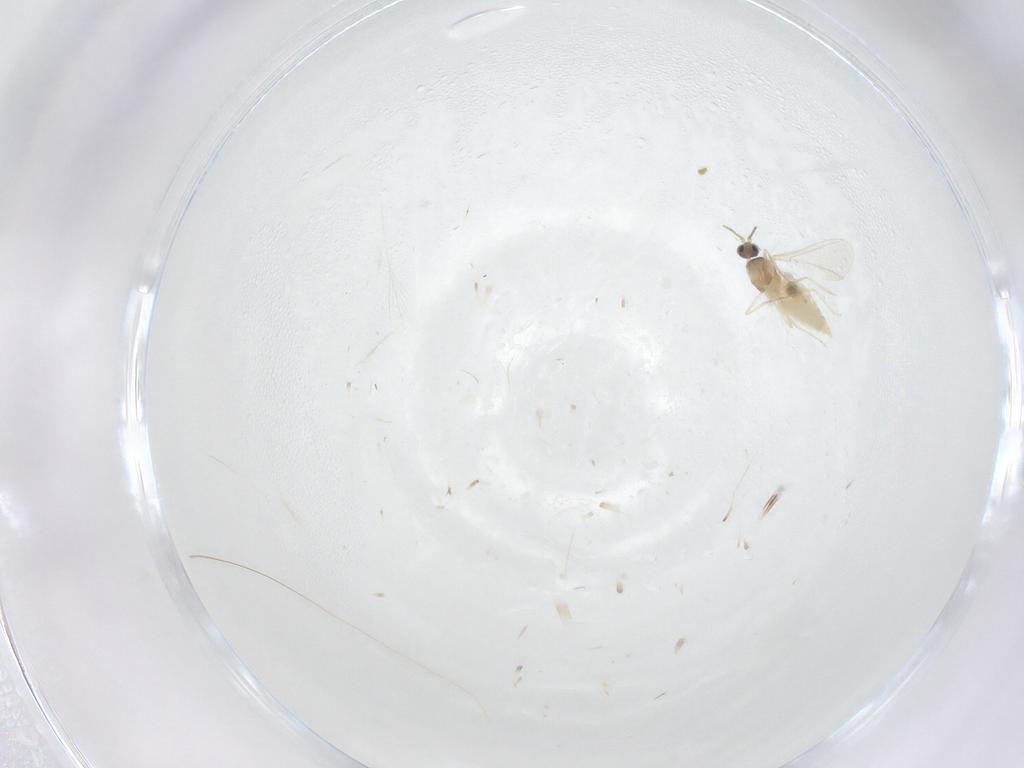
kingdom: Animalia
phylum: Arthropoda
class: Insecta
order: Diptera
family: Cecidomyiidae
